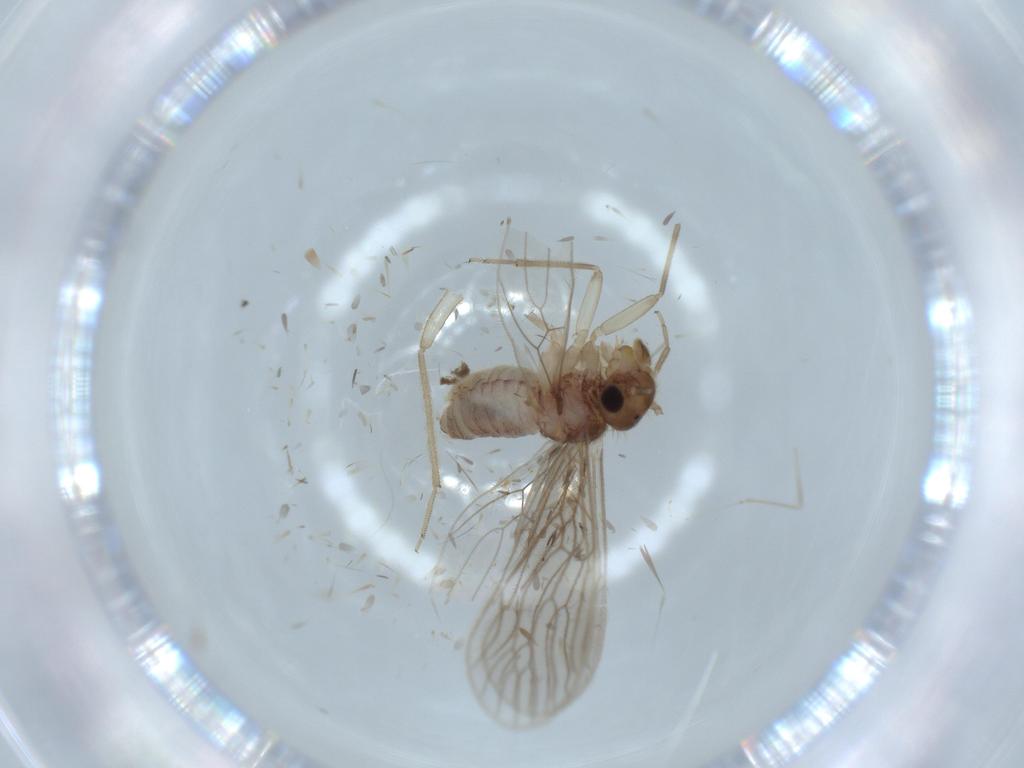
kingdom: Animalia
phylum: Arthropoda
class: Insecta
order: Psocodea
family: Cladiopsocidae
